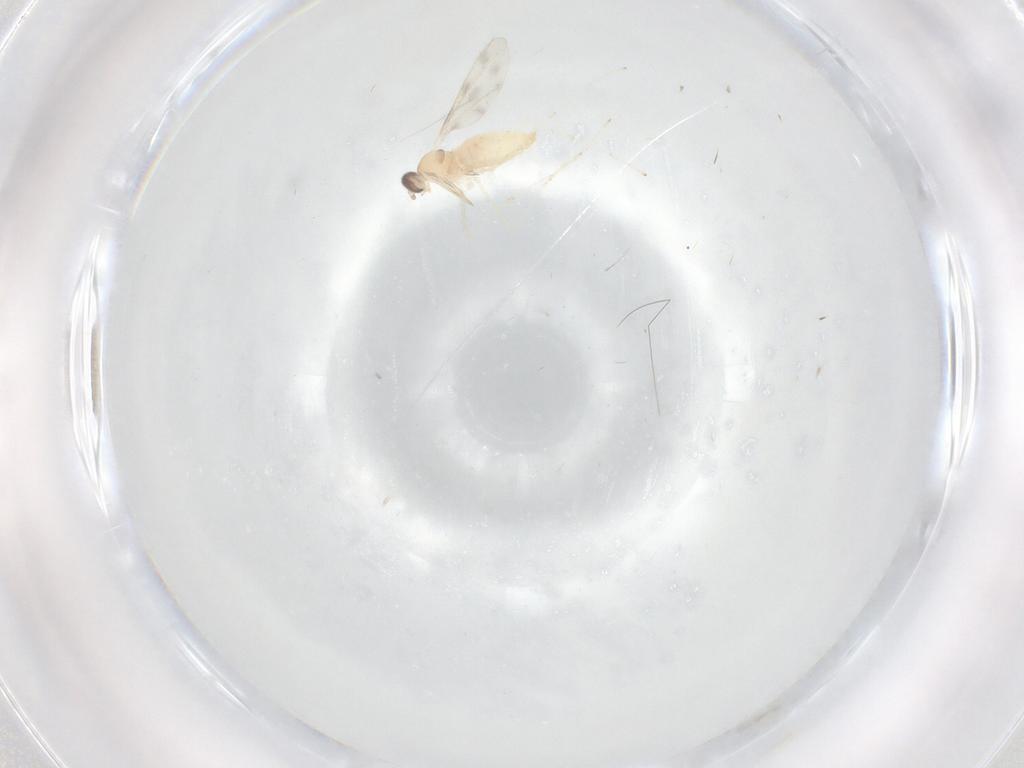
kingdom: Animalia
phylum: Arthropoda
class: Insecta
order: Diptera
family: Cecidomyiidae
